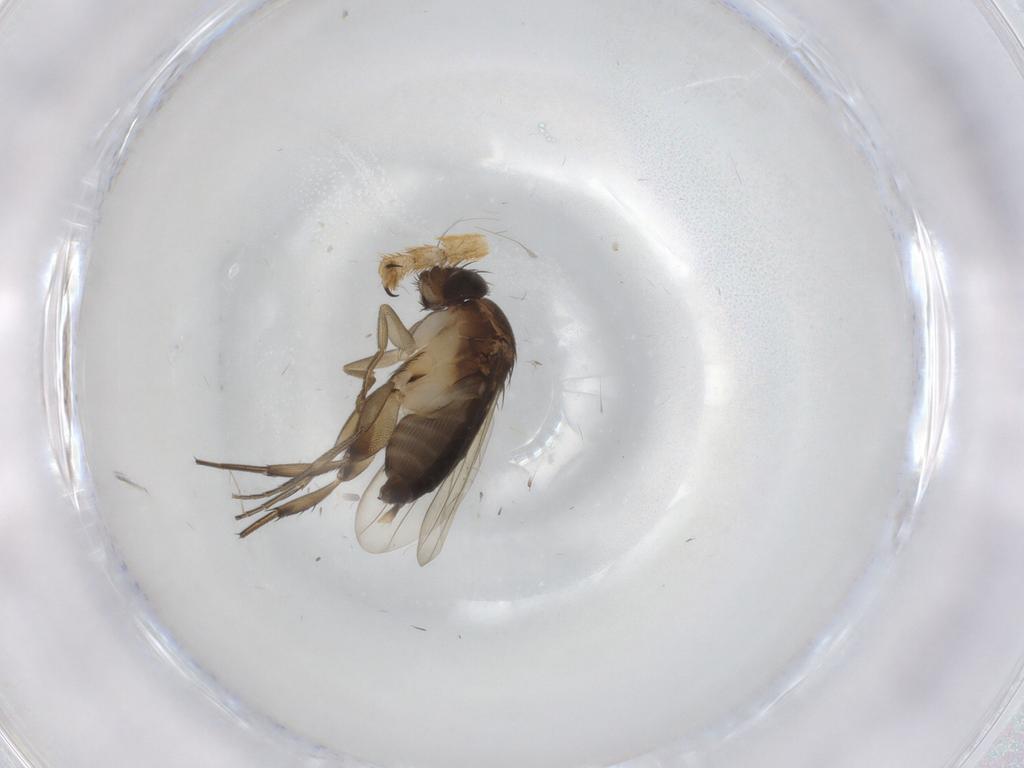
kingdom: Animalia
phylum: Arthropoda
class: Insecta
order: Diptera
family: Syrphidae
